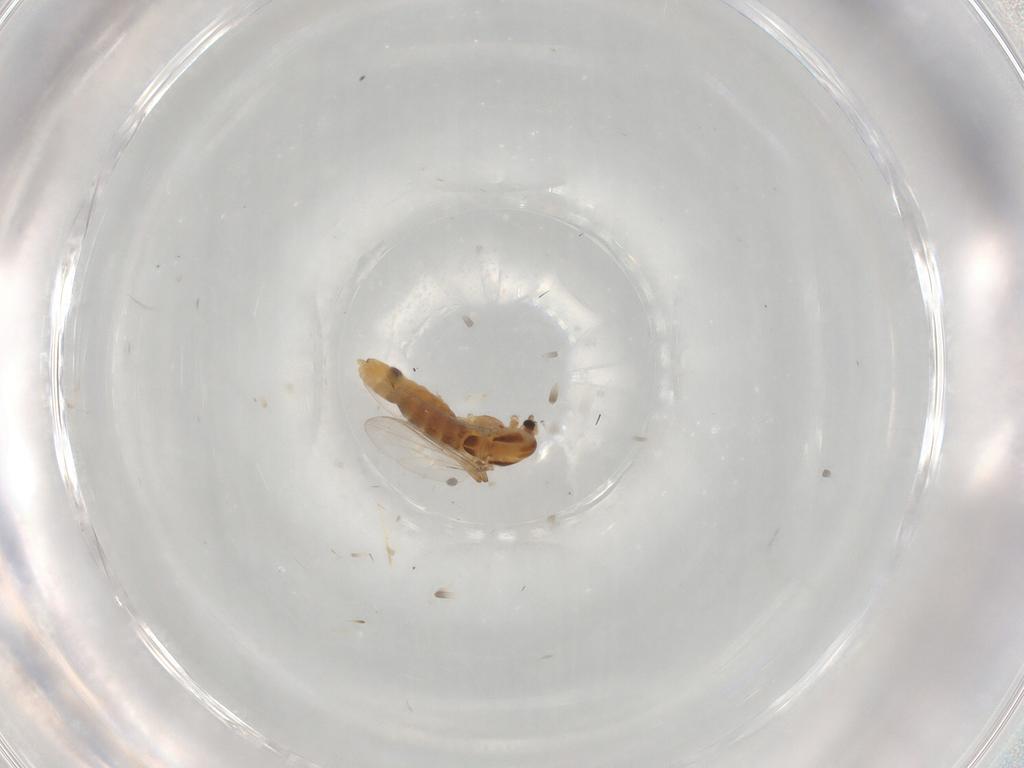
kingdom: Animalia
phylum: Arthropoda
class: Insecta
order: Diptera
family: Chironomidae
